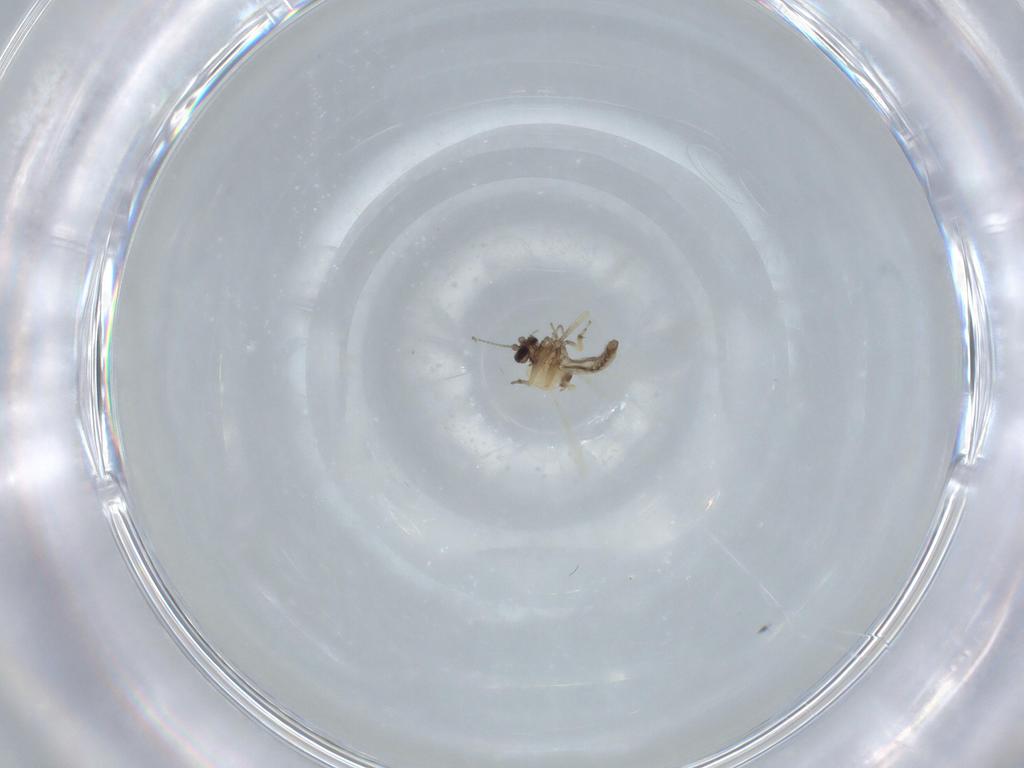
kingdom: Animalia
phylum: Arthropoda
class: Insecta
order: Diptera
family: Ceratopogonidae
